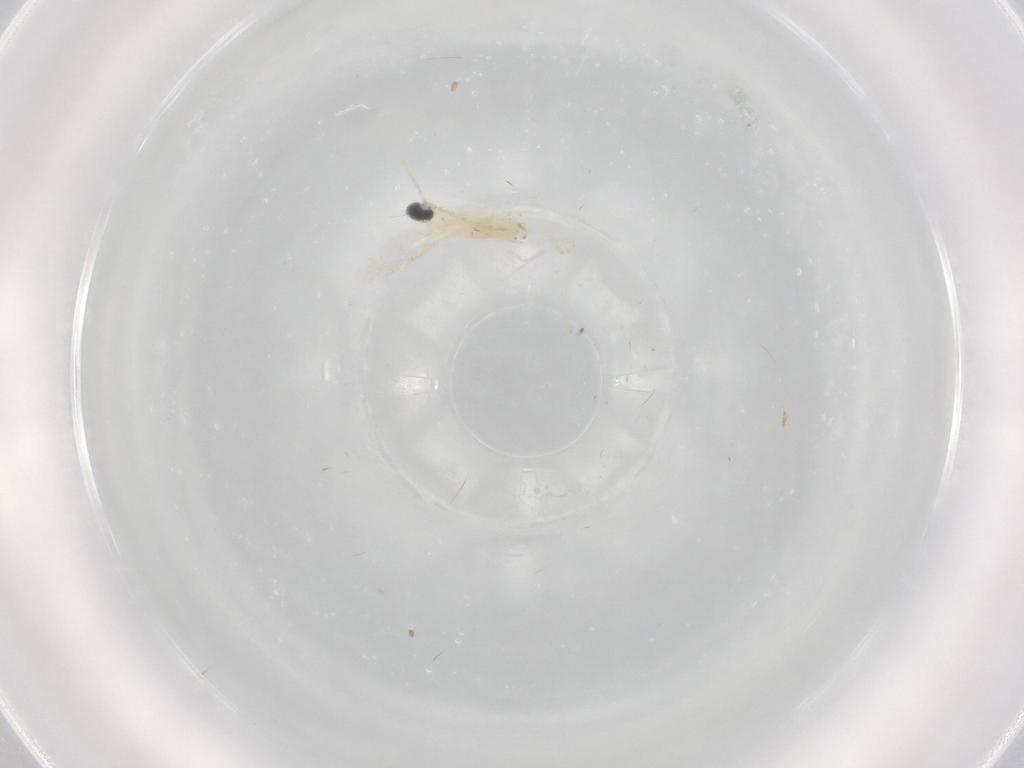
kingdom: Animalia
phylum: Arthropoda
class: Insecta
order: Diptera
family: Cecidomyiidae
